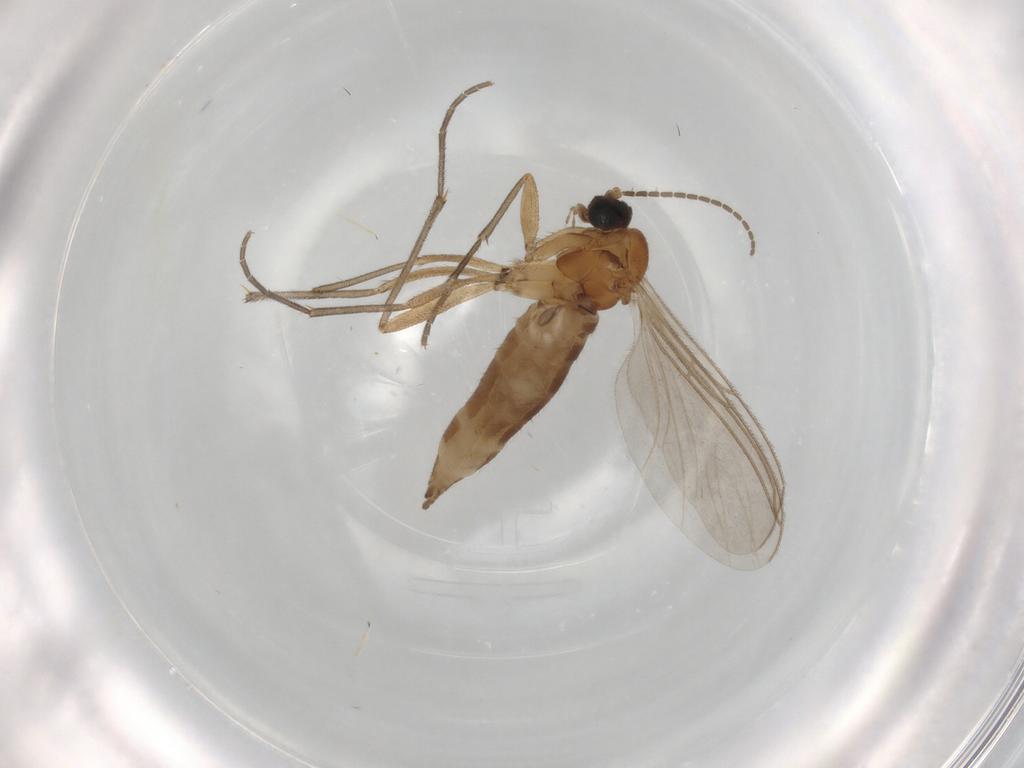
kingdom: Animalia
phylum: Arthropoda
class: Insecta
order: Diptera
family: Sciaridae
